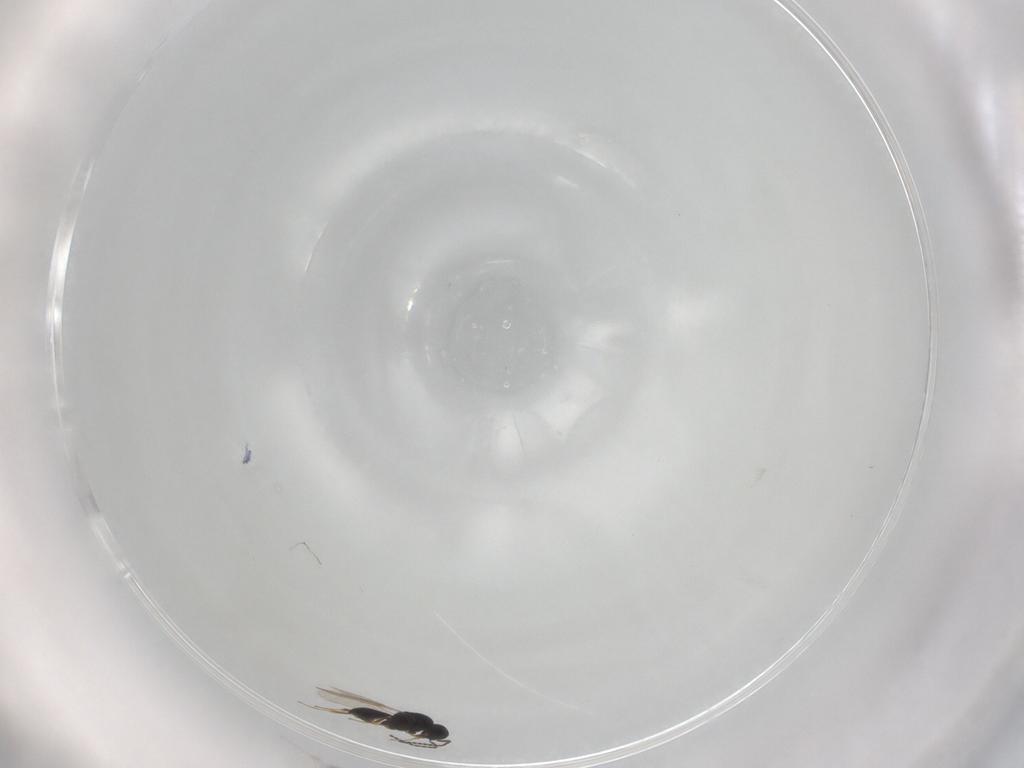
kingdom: Animalia
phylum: Arthropoda
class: Insecta
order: Hymenoptera
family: Scelionidae
